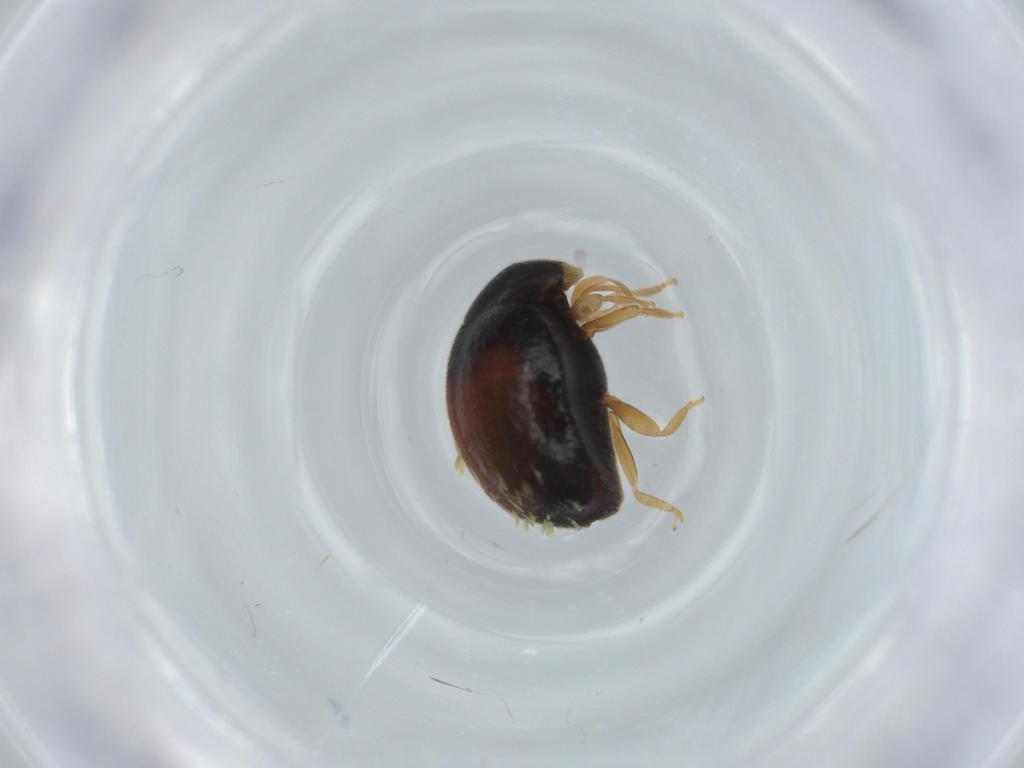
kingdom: Animalia
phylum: Arthropoda
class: Insecta
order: Coleoptera
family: Coccinellidae
